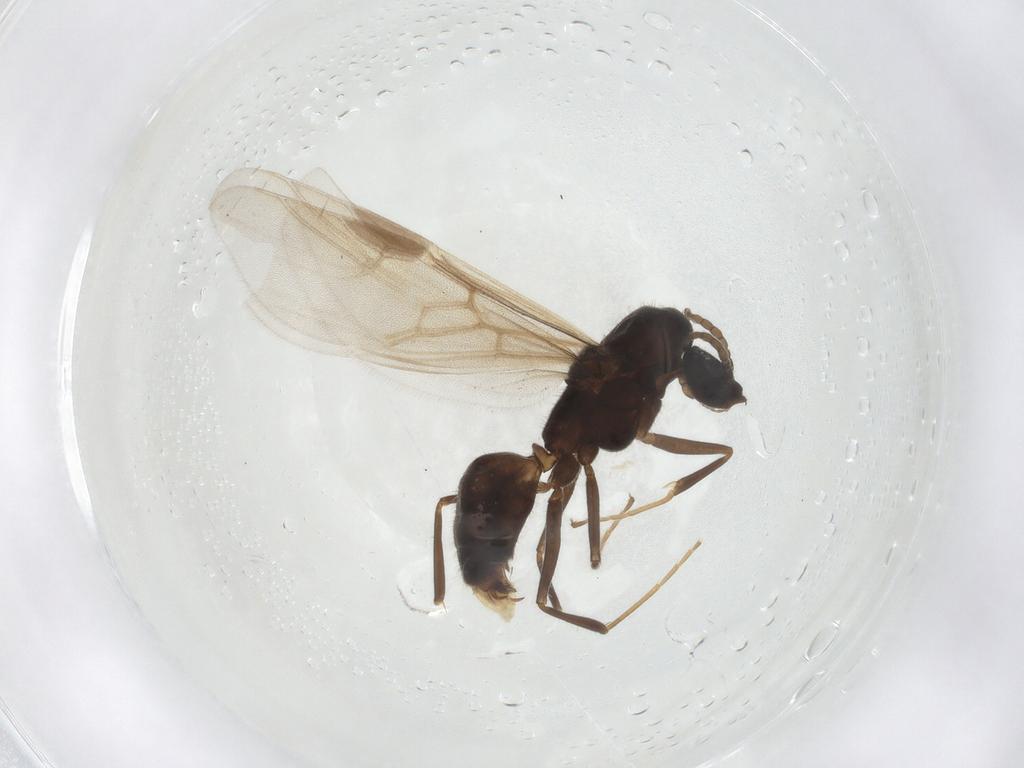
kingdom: Animalia
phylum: Arthropoda
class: Insecta
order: Hymenoptera
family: Formicidae
